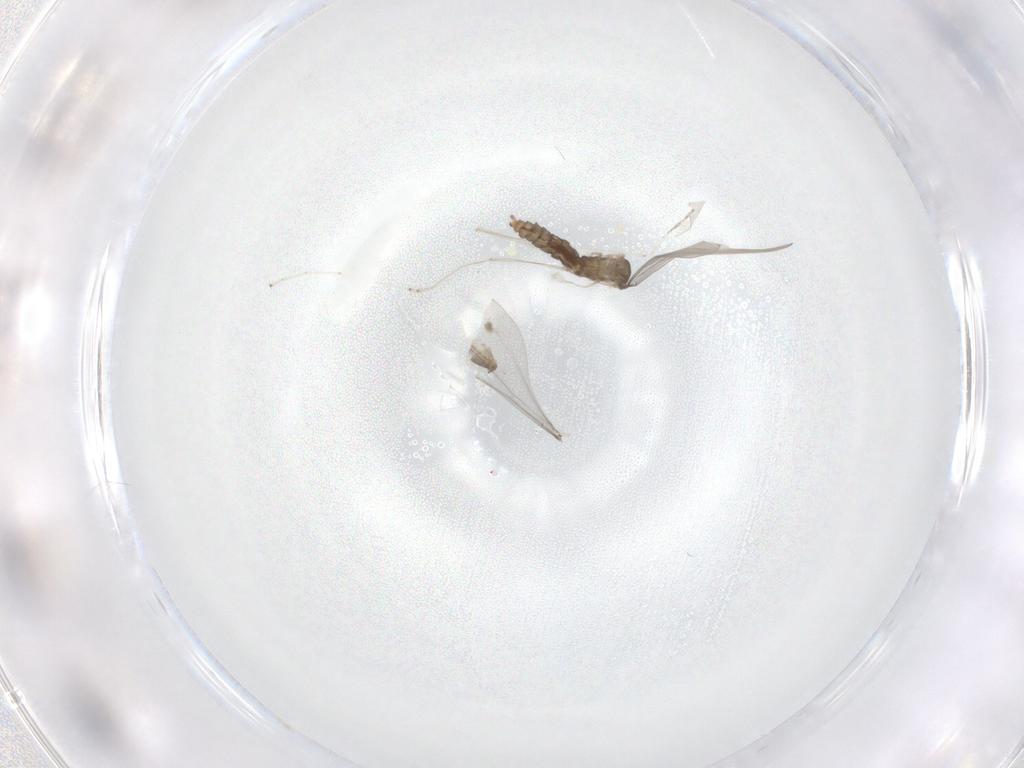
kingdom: Animalia
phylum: Arthropoda
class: Insecta
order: Diptera
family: Cecidomyiidae
